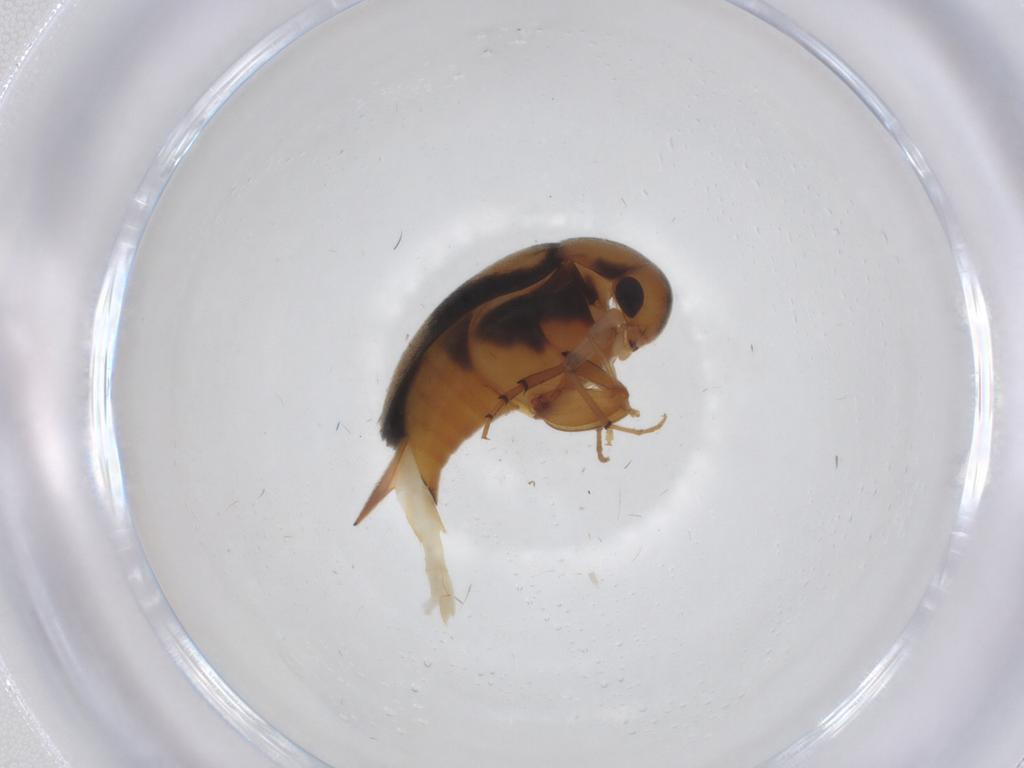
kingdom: Animalia
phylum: Arthropoda
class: Insecta
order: Coleoptera
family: Mordellidae
